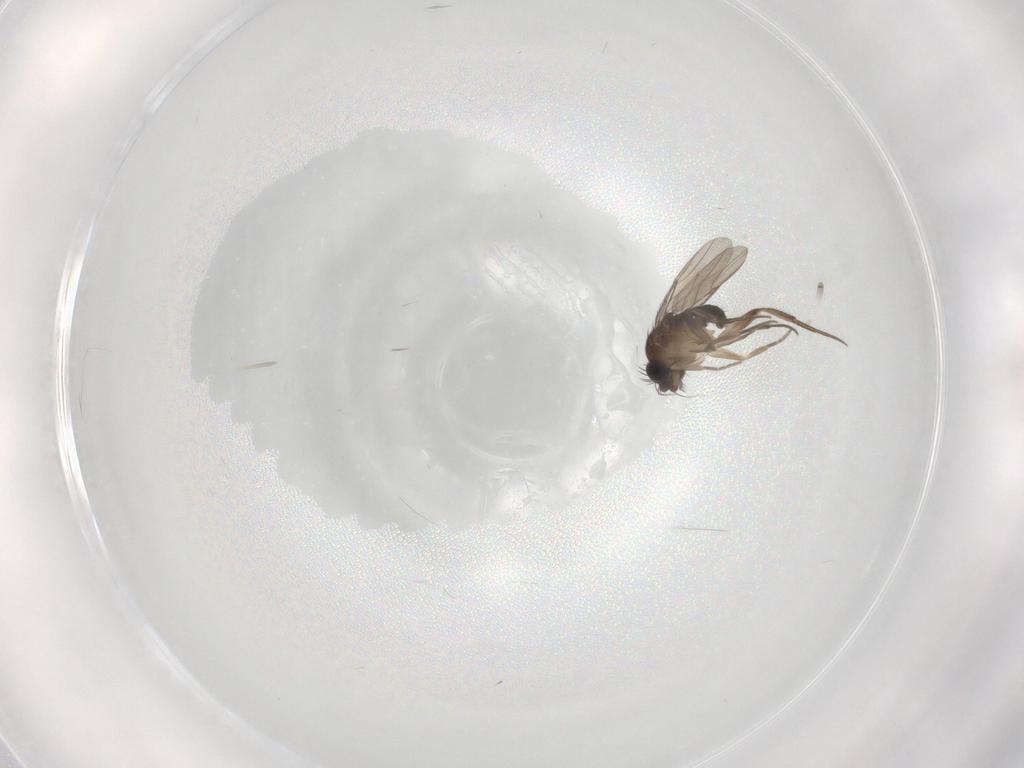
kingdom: Animalia
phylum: Arthropoda
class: Insecta
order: Diptera
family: Phoridae
